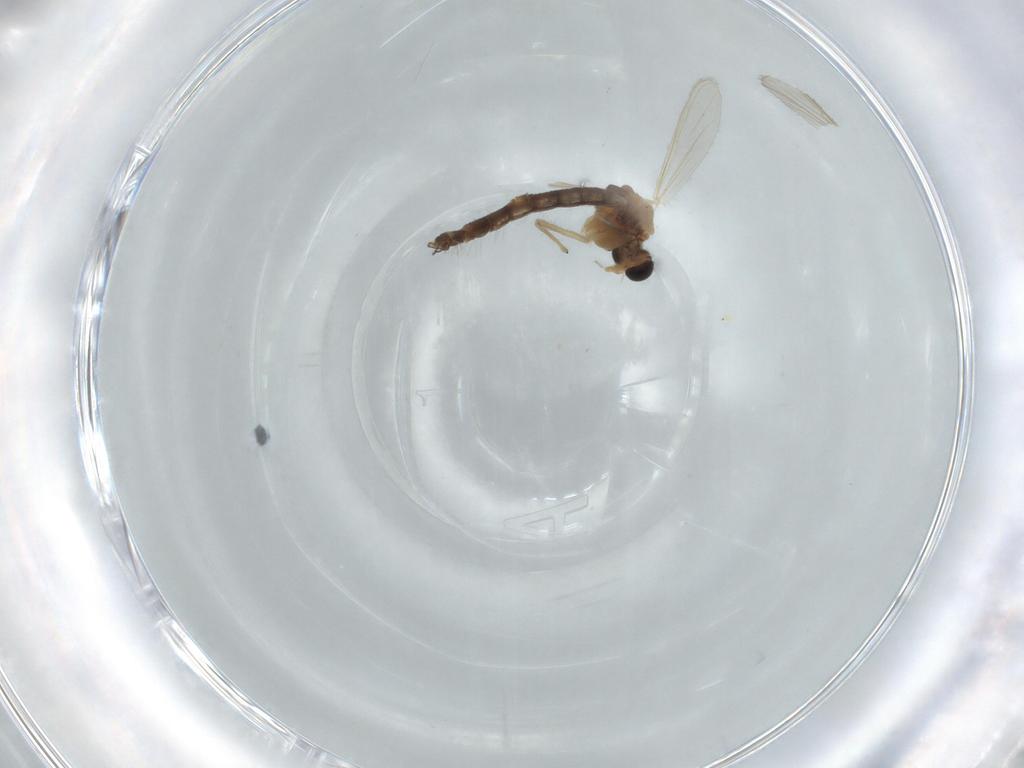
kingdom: Animalia
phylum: Arthropoda
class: Insecta
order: Diptera
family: Chironomidae
